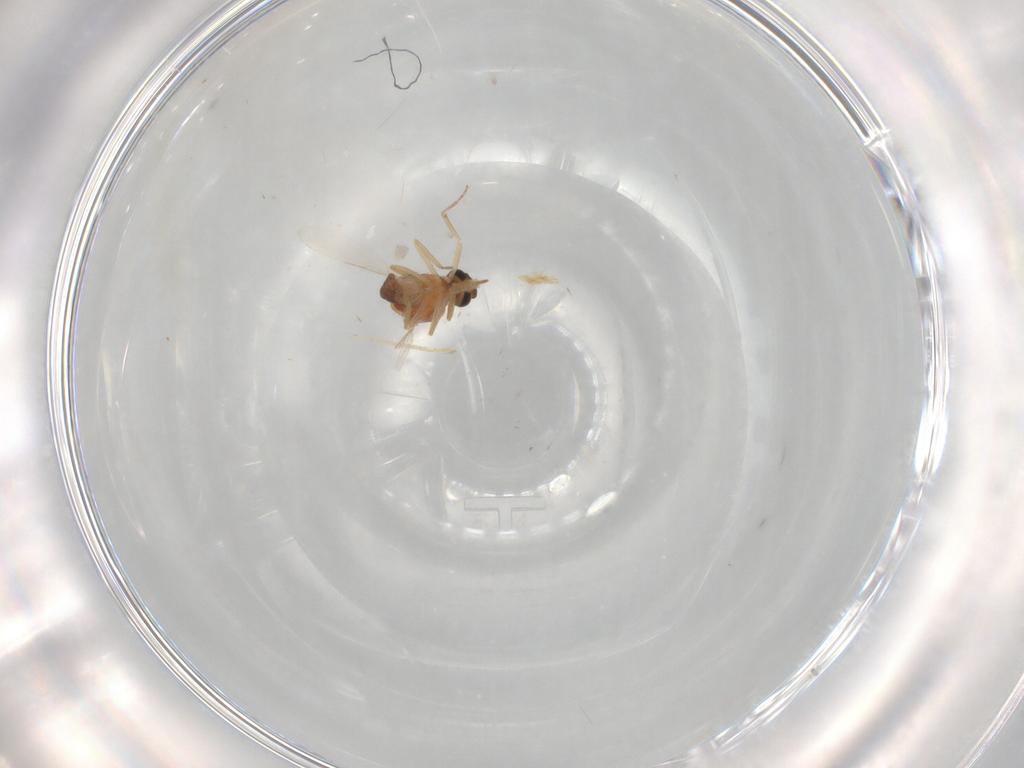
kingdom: Animalia
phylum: Arthropoda
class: Insecta
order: Diptera
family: Ceratopogonidae
